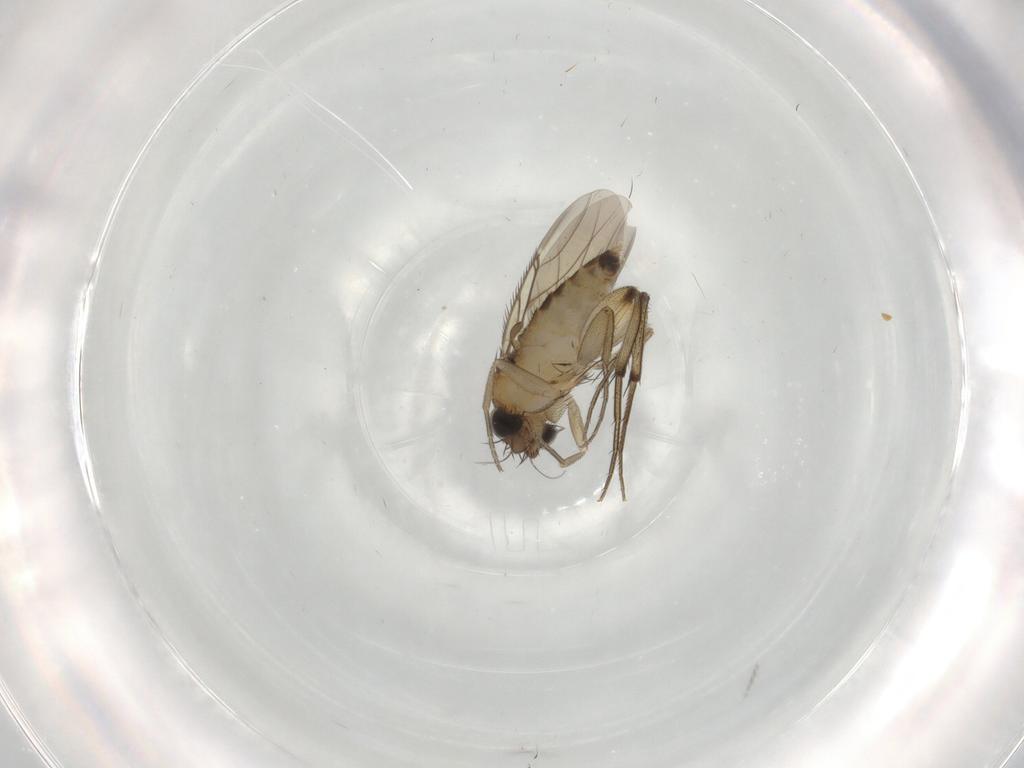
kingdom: Animalia
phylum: Arthropoda
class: Insecta
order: Diptera
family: Phoridae
